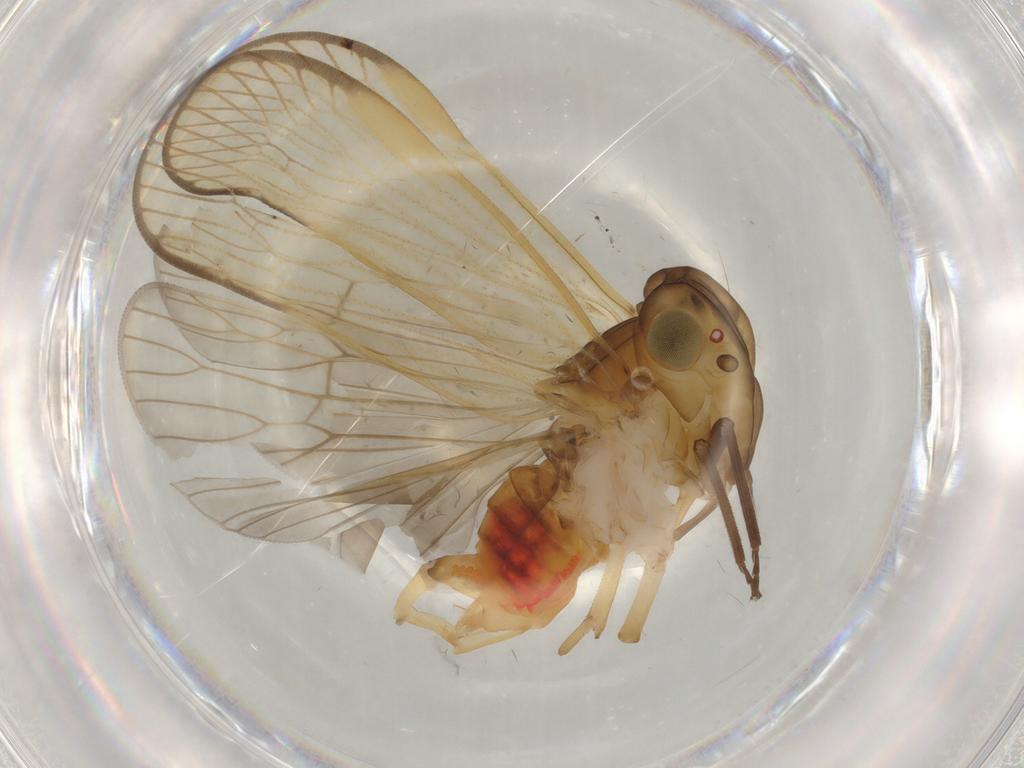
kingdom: Animalia
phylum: Arthropoda
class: Insecta
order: Hemiptera
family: Cixiidae
